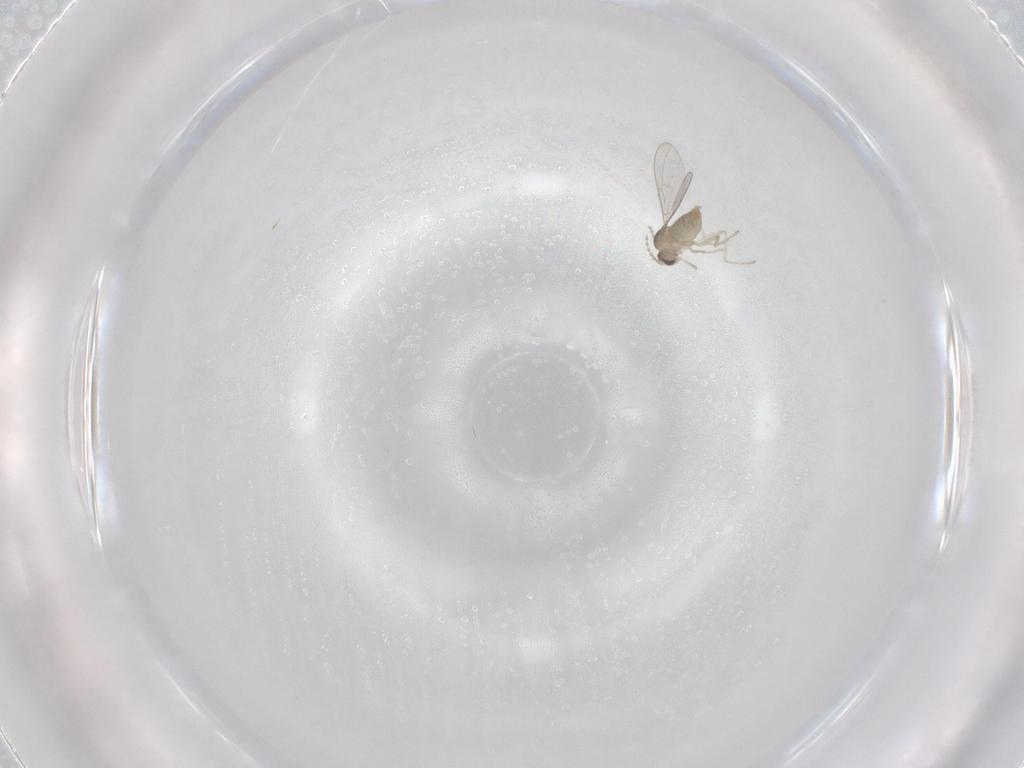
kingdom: Animalia
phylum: Arthropoda
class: Insecta
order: Diptera
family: Cecidomyiidae
